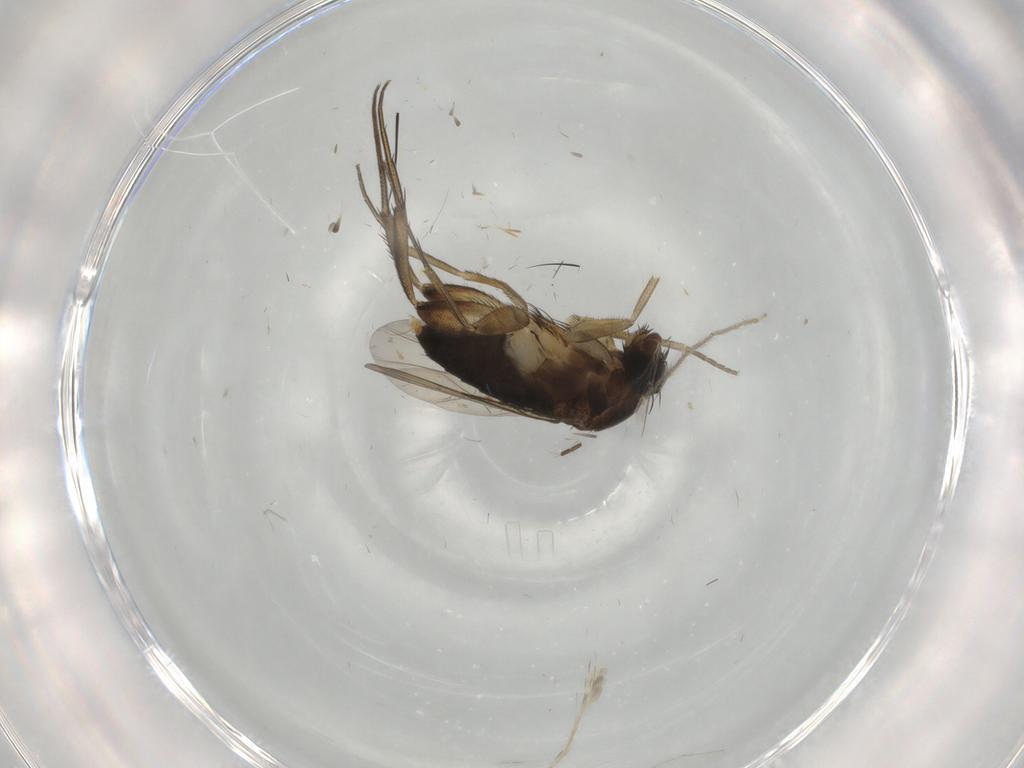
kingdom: Animalia
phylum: Arthropoda
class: Insecta
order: Diptera
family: Phoridae
